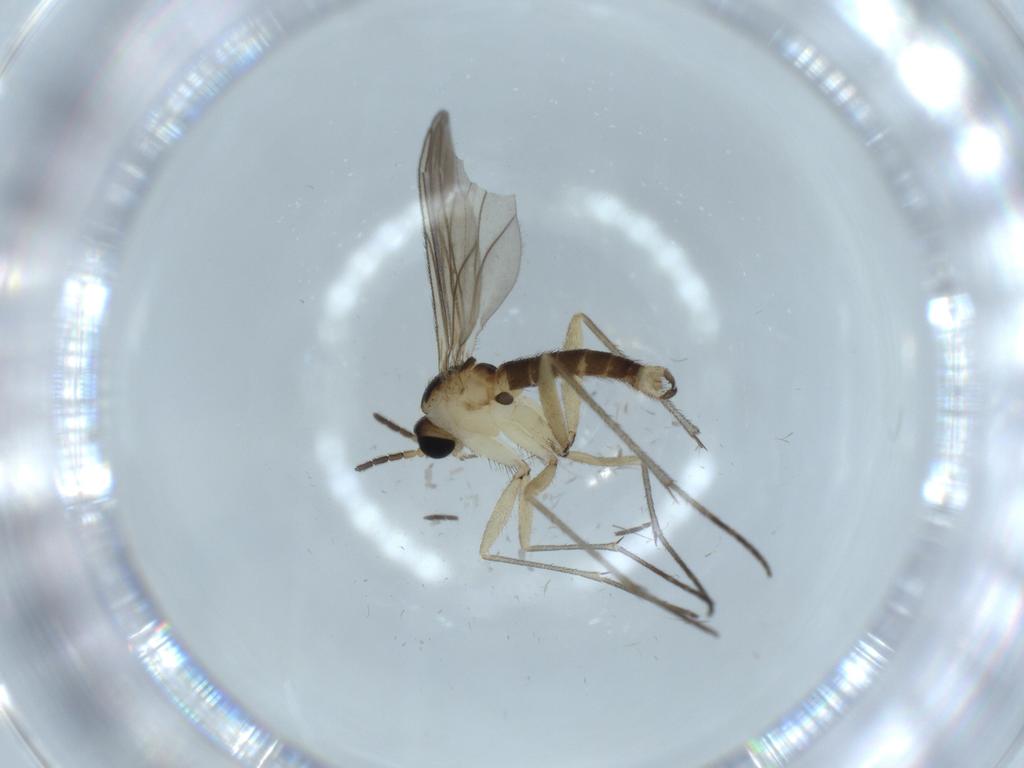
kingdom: Animalia
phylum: Arthropoda
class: Insecta
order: Diptera
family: Sciaridae
